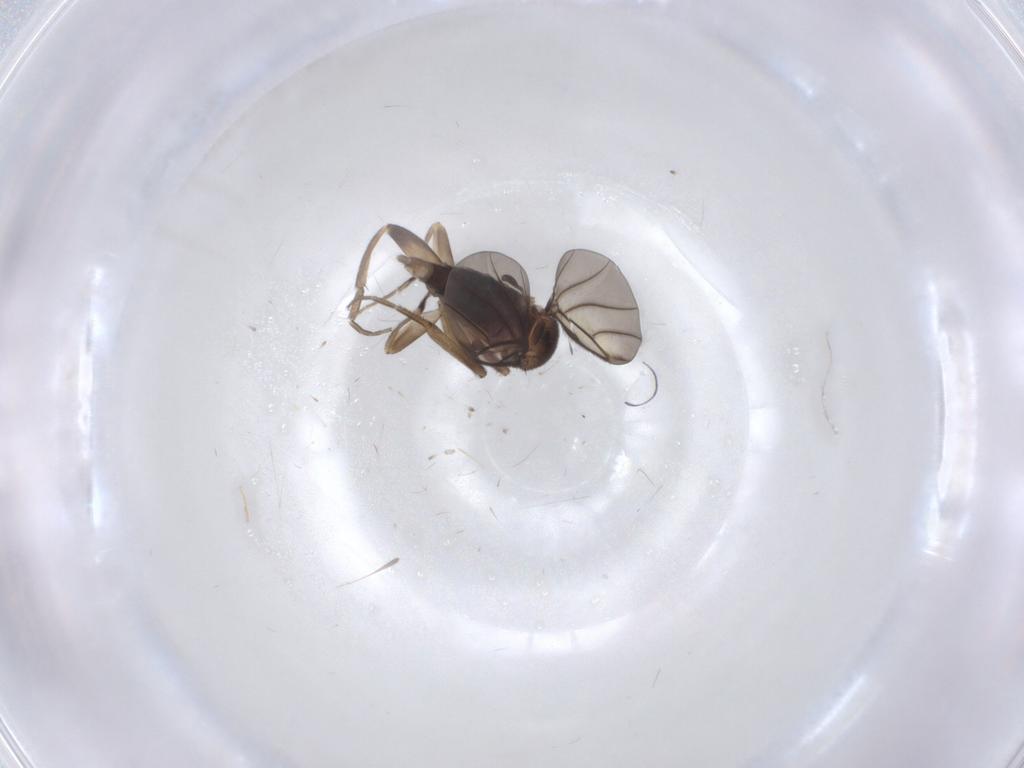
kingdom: Animalia
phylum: Arthropoda
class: Insecta
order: Diptera
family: Phoridae
